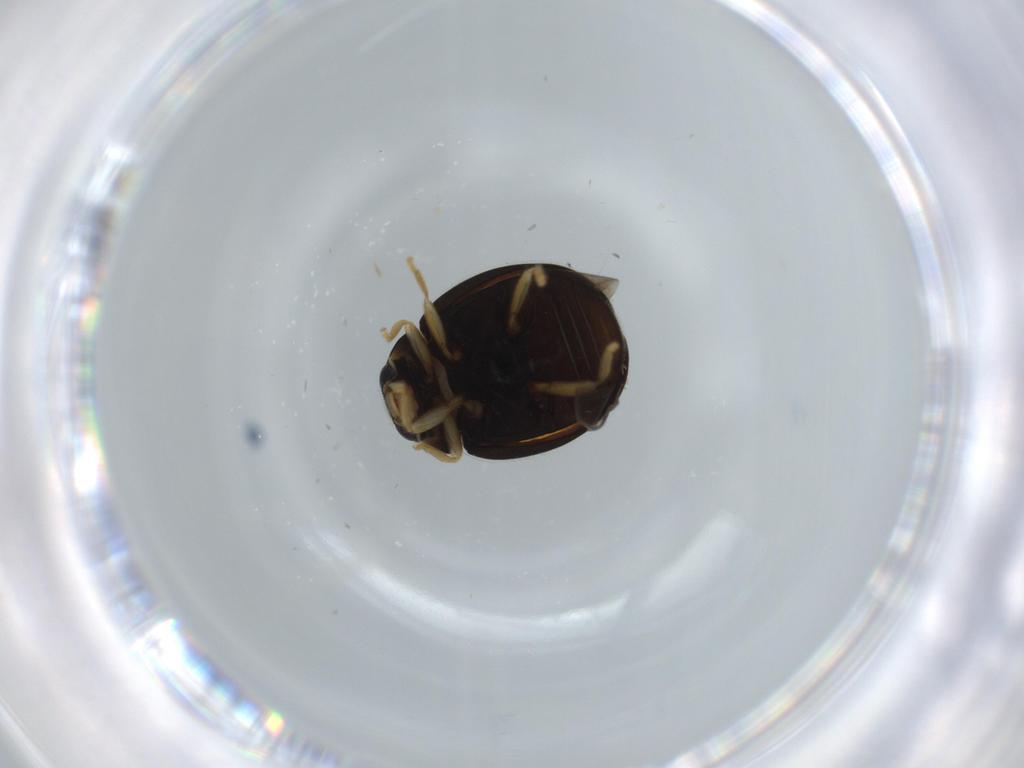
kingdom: Animalia
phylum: Arthropoda
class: Insecta
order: Coleoptera
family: Coccinellidae
